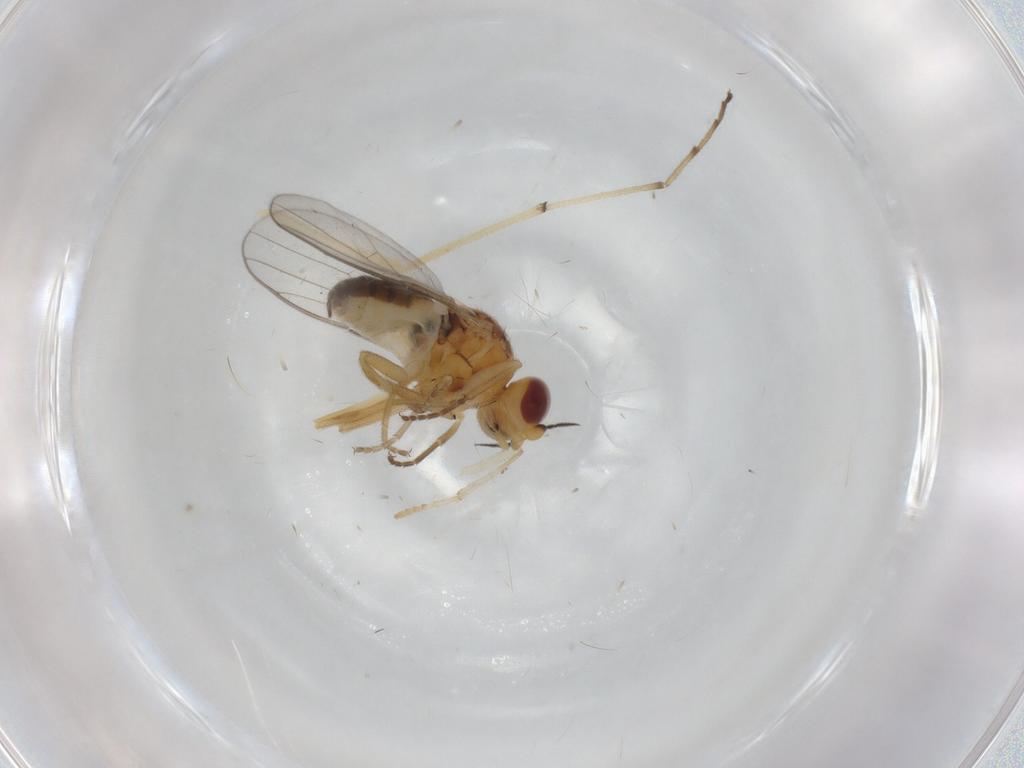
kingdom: Animalia
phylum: Arthropoda
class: Insecta
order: Diptera
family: Chloropidae
